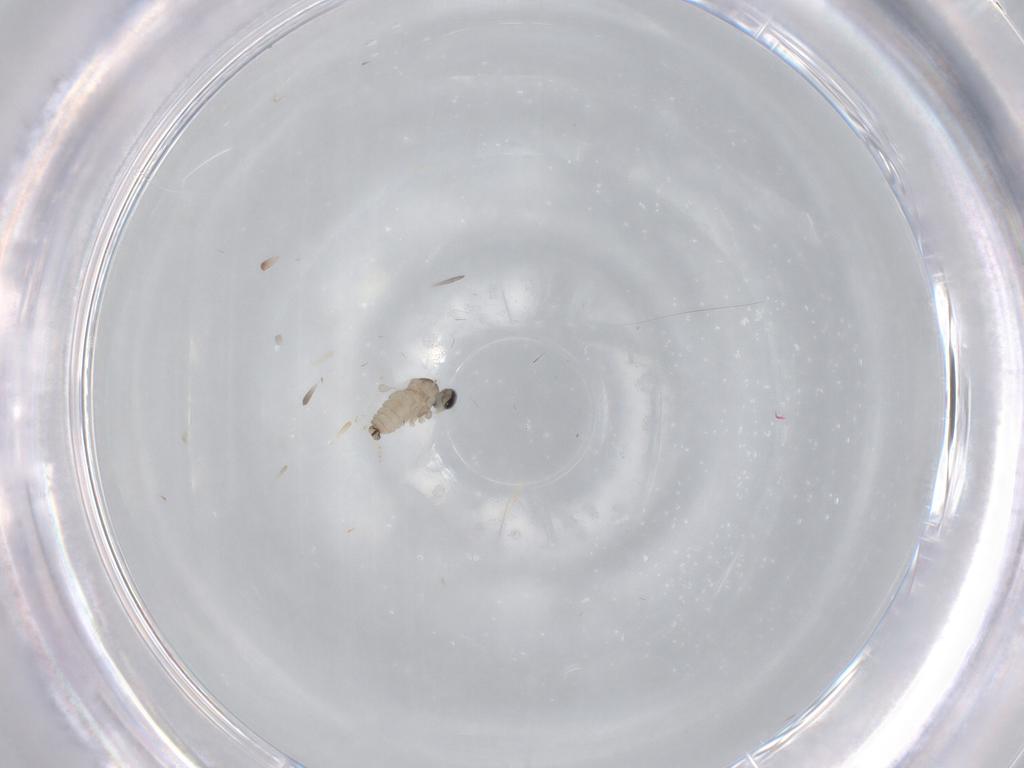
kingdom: Animalia
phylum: Arthropoda
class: Insecta
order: Diptera
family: Cecidomyiidae
